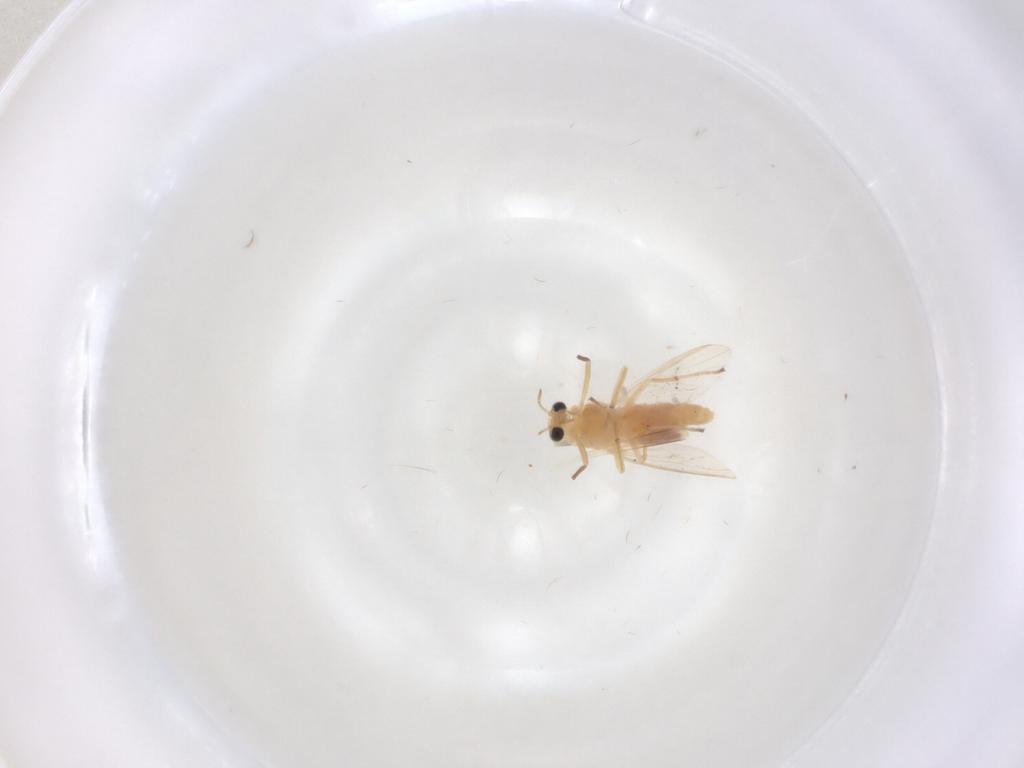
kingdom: Animalia
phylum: Arthropoda
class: Insecta
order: Diptera
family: Chironomidae
